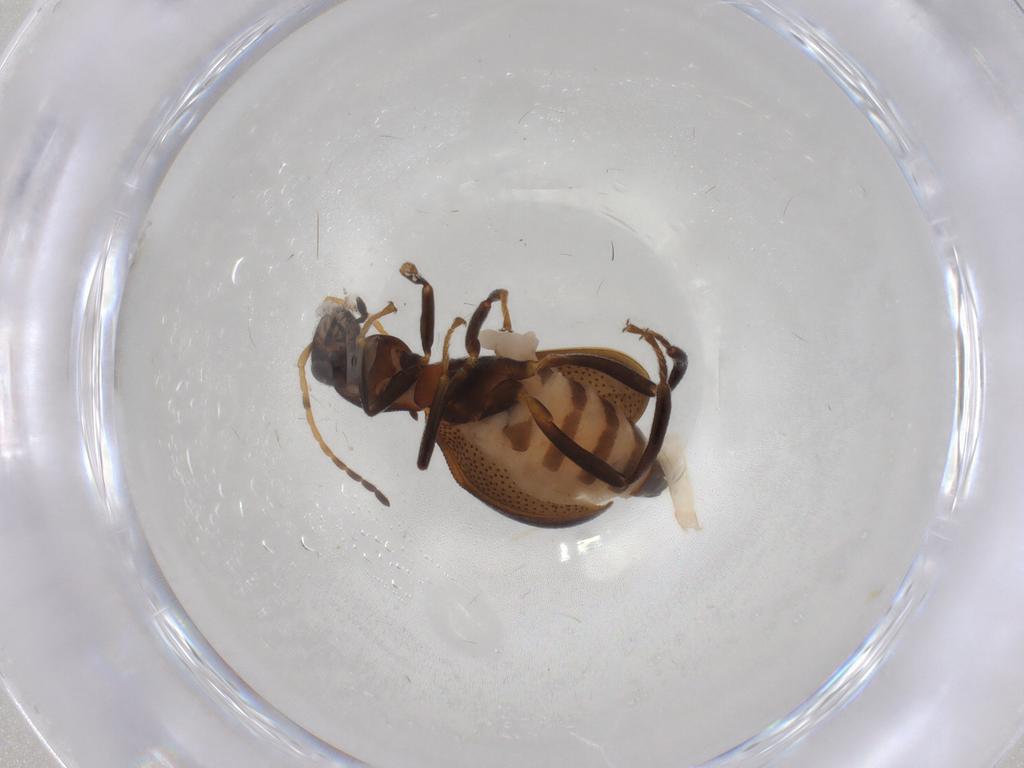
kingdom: Animalia
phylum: Arthropoda
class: Insecta
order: Coleoptera
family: Melyridae
